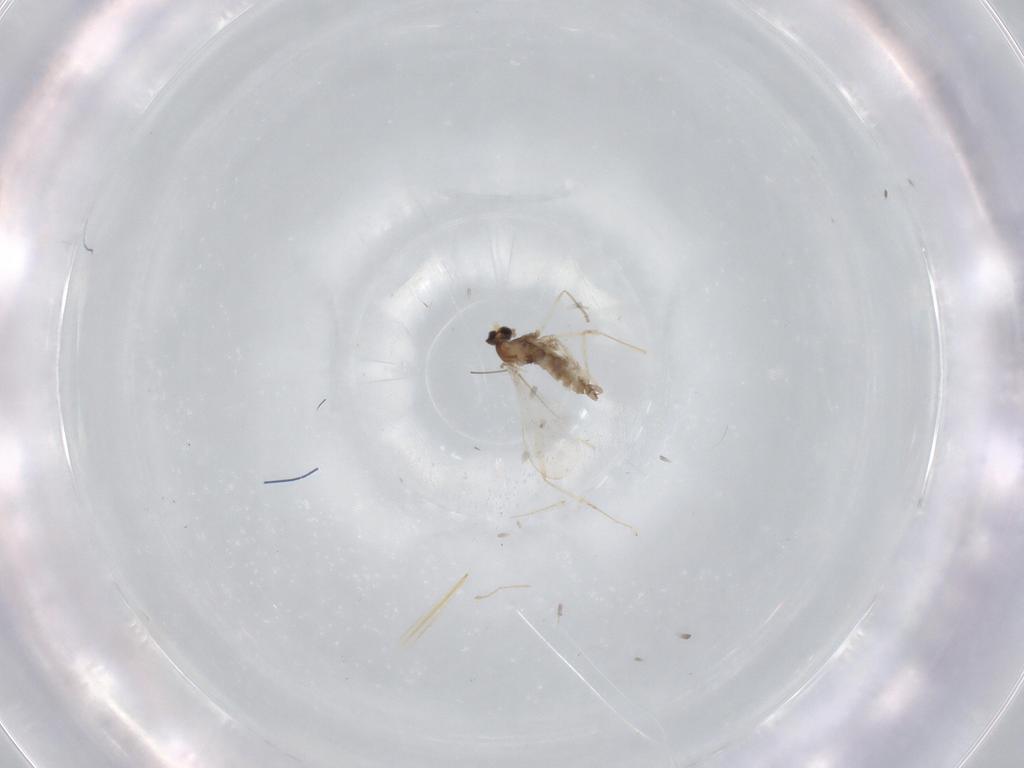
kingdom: Animalia
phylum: Arthropoda
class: Insecta
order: Diptera
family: Cecidomyiidae
